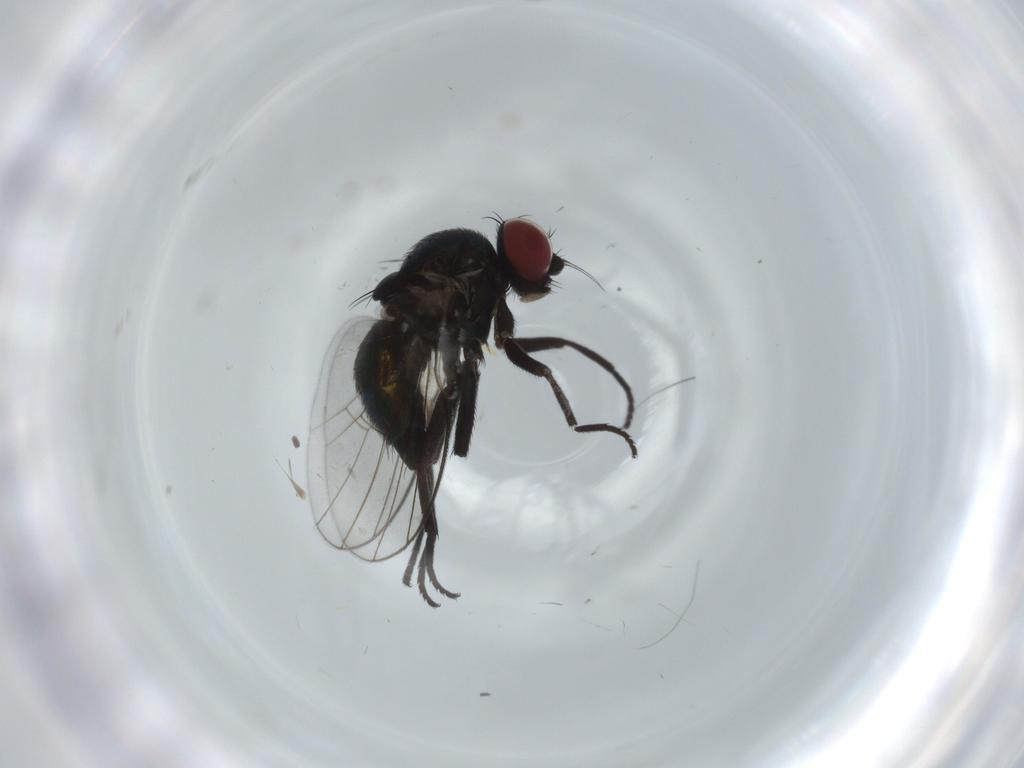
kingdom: Animalia
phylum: Arthropoda
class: Insecta
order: Diptera
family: Agromyzidae
